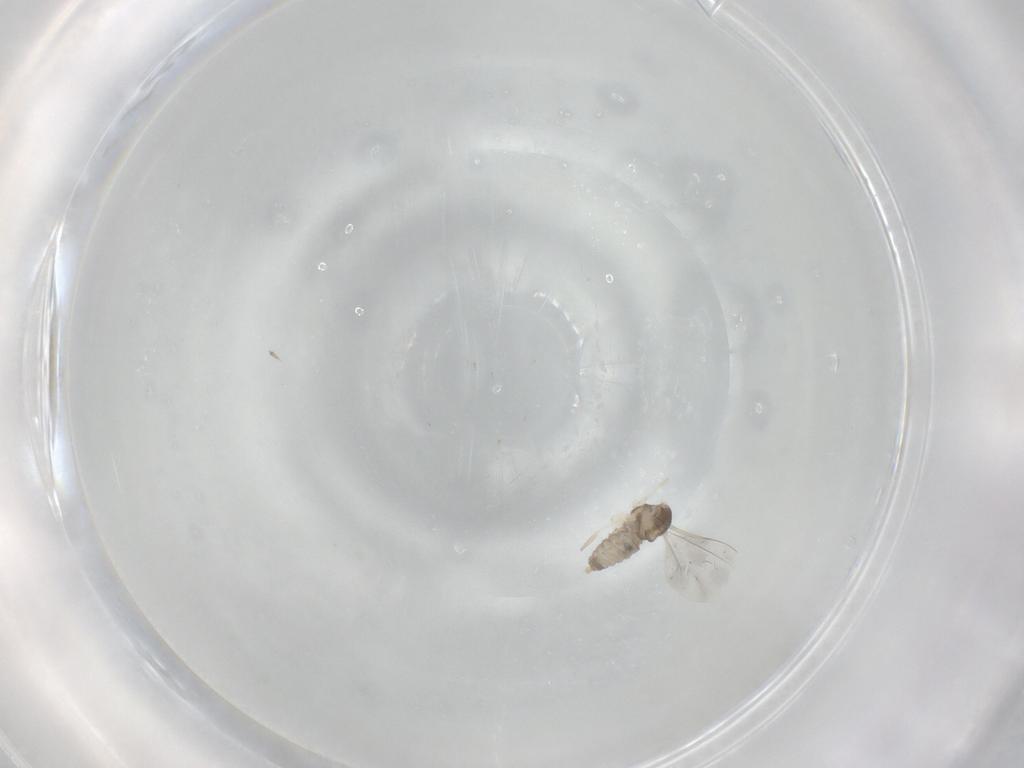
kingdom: Animalia
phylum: Arthropoda
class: Insecta
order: Diptera
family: Cecidomyiidae
